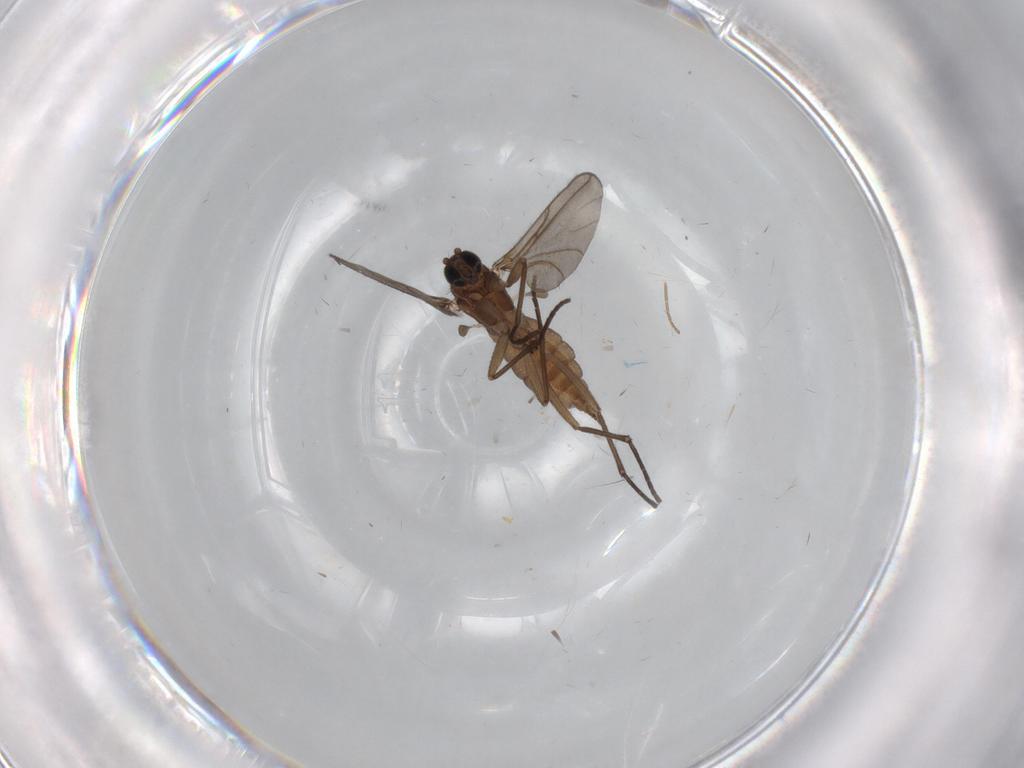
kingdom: Animalia
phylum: Arthropoda
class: Insecta
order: Diptera
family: Sciaridae
